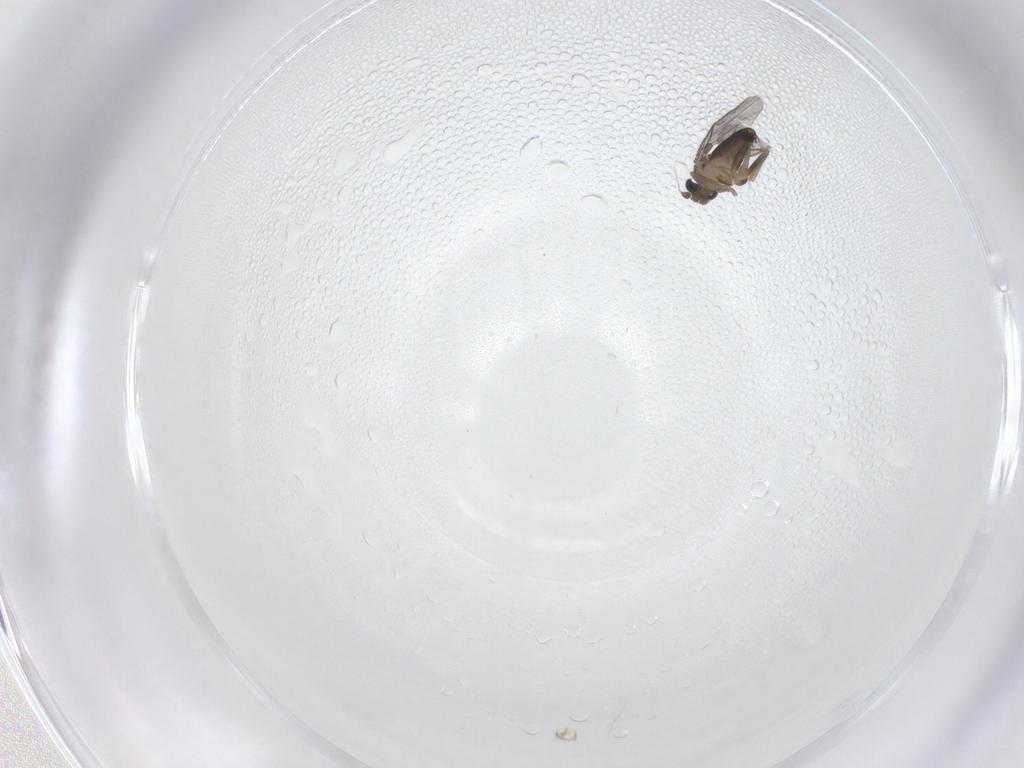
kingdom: Animalia
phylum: Arthropoda
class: Insecta
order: Diptera
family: Phoridae
